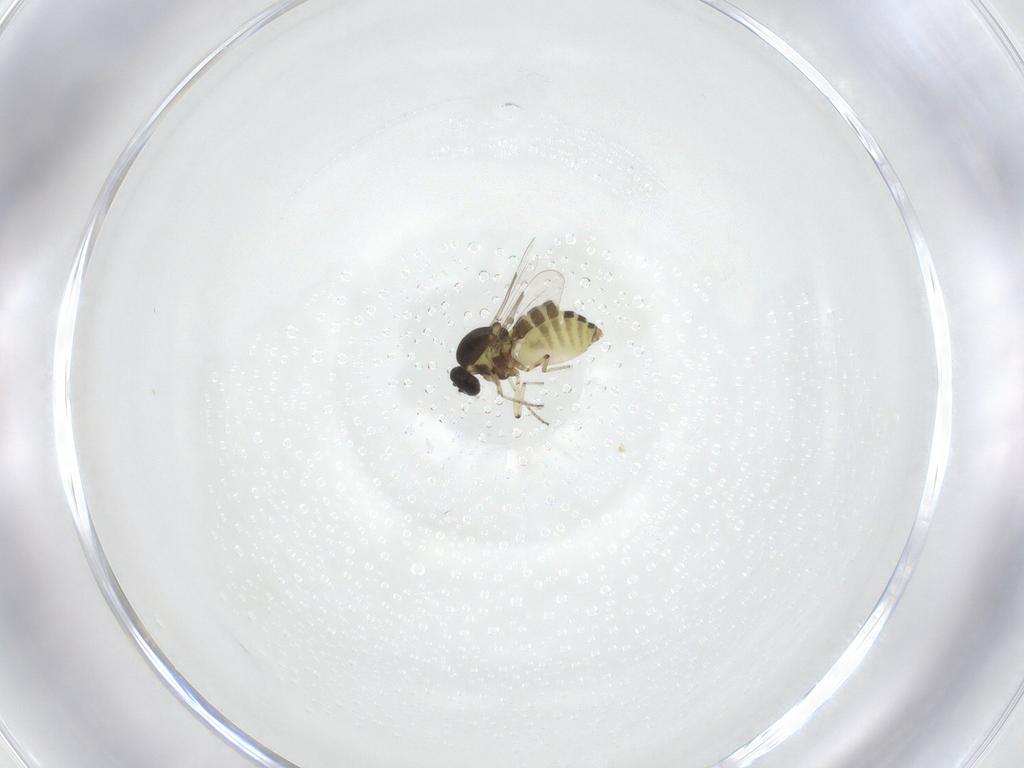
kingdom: Animalia
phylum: Arthropoda
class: Insecta
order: Diptera
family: Ceratopogonidae
